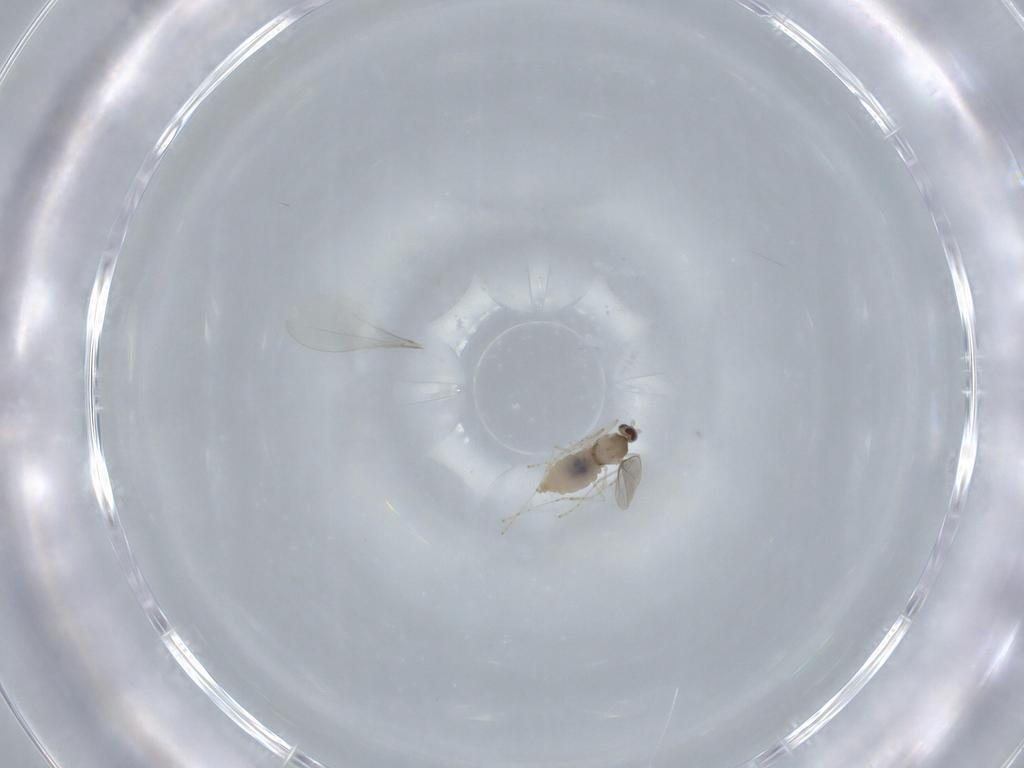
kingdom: Animalia
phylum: Arthropoda
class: Insecta
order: Diptera
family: Cecidomyiidae
